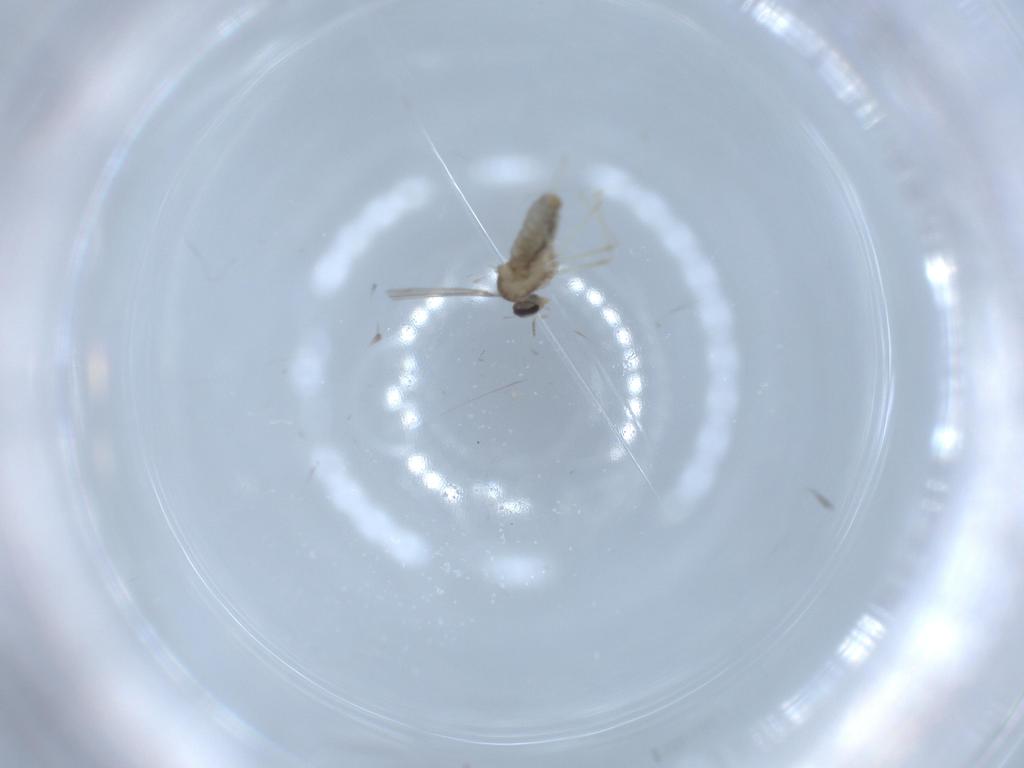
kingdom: Animalia
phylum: Arthropoda
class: Insecta
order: Diptera
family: Cecidomyiidae
